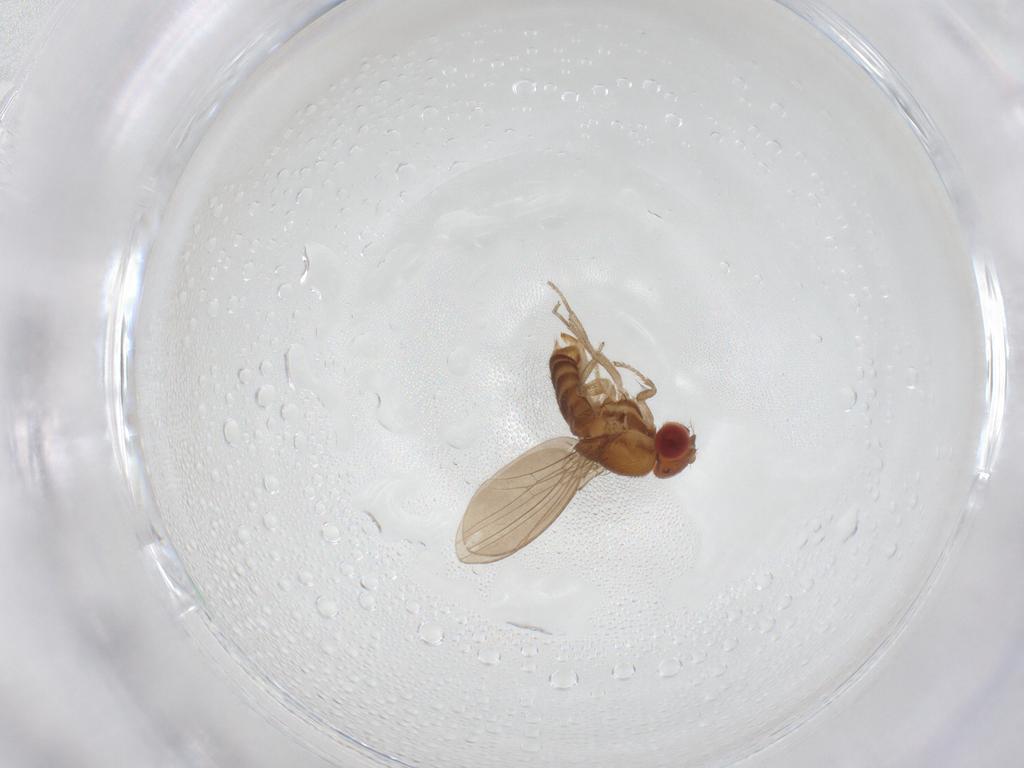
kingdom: Animalia
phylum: Arthropoda
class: Insecta
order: Diptera
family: Drosophilidae
